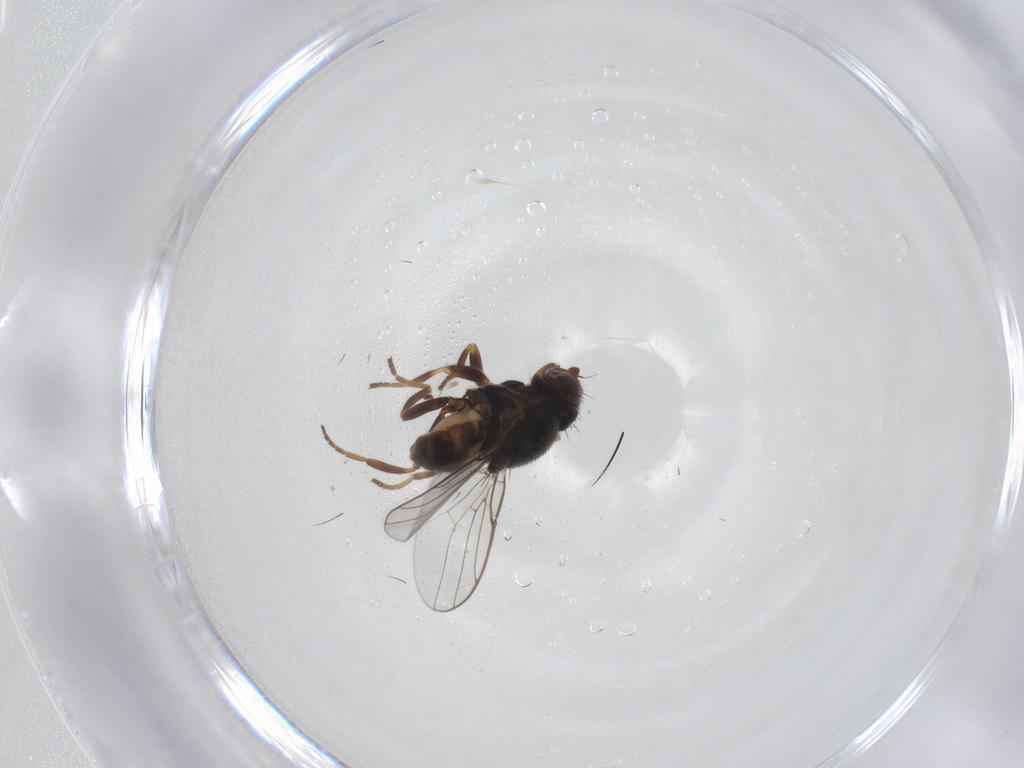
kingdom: Animalia
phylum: Arthropoda
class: Insecta
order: Diptera
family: Chloropidae
